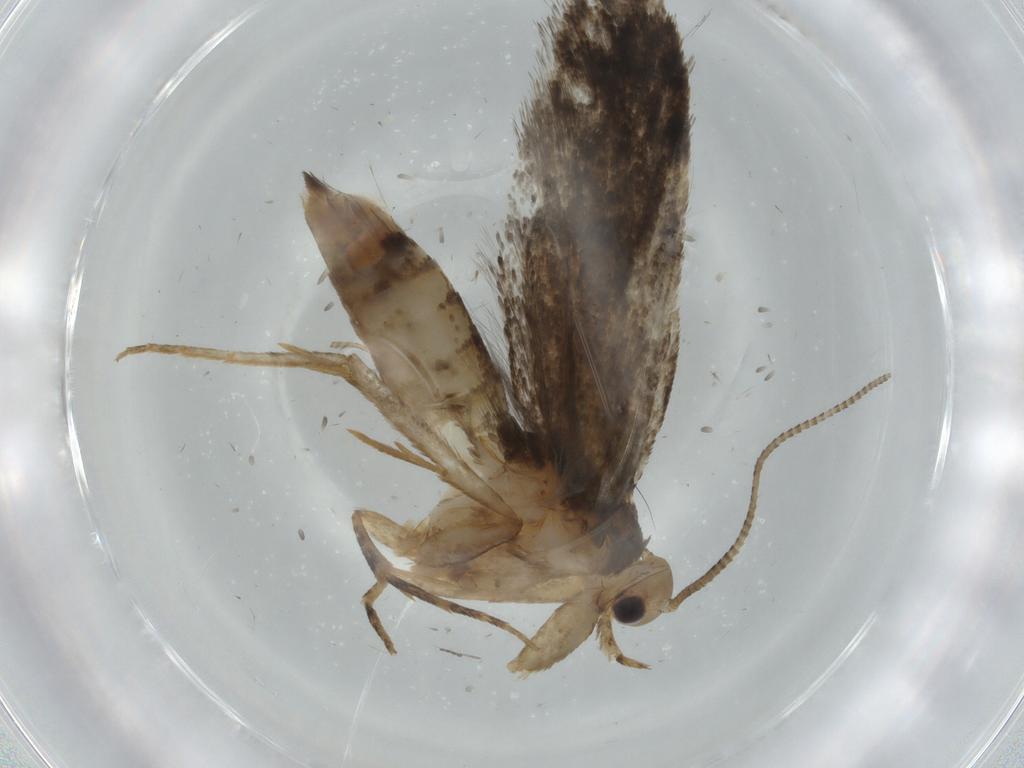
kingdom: Animalia
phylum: Arthropoda
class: Insecta
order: Lepidoptera
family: Tineidae
